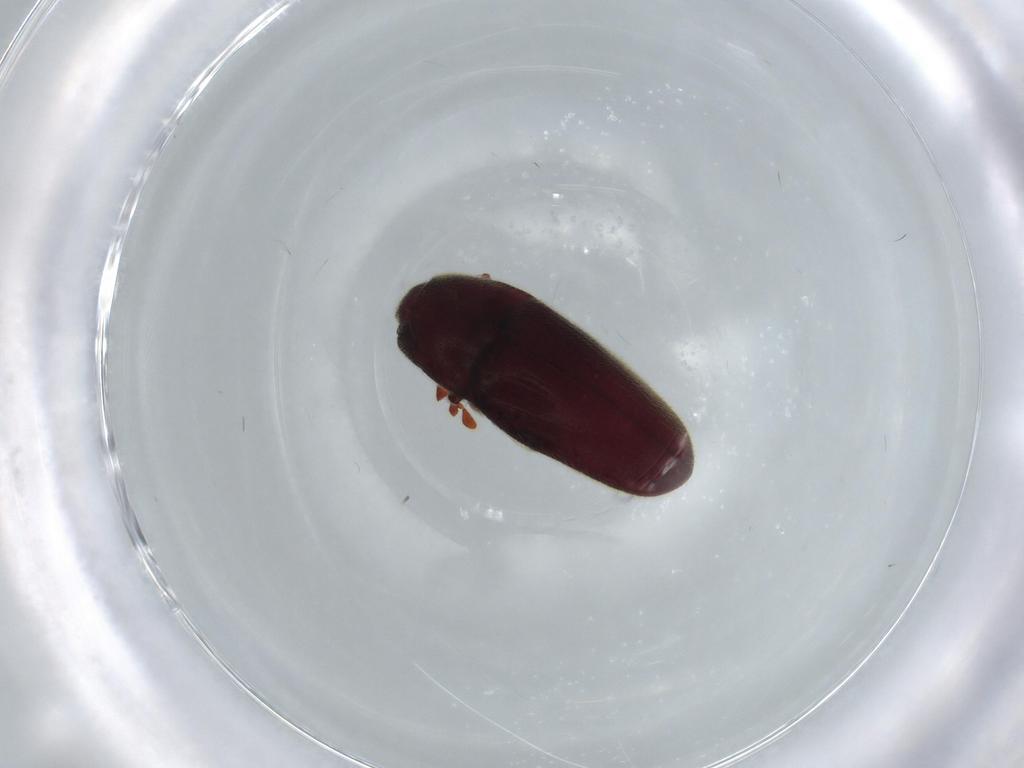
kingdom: Animalia
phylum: Arthropoda
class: Insecta
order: Coleoptera
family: Throscidae
